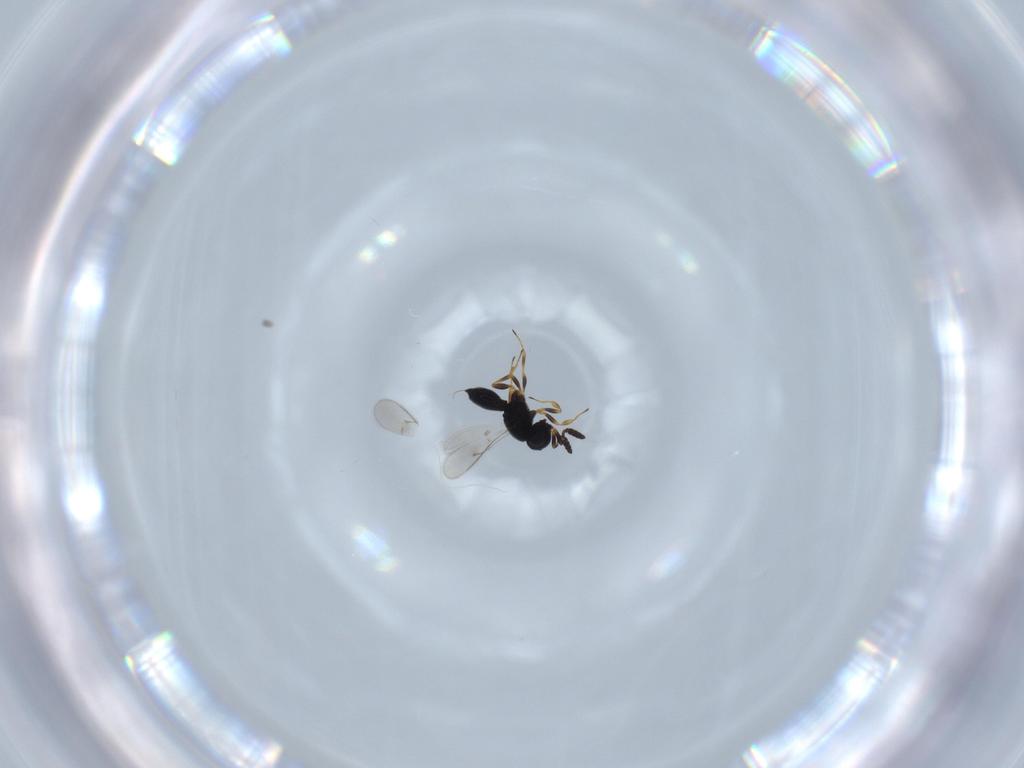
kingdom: Animalia
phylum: Arthropoda
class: Insecta
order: Hymenoptera
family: Scelionidae
